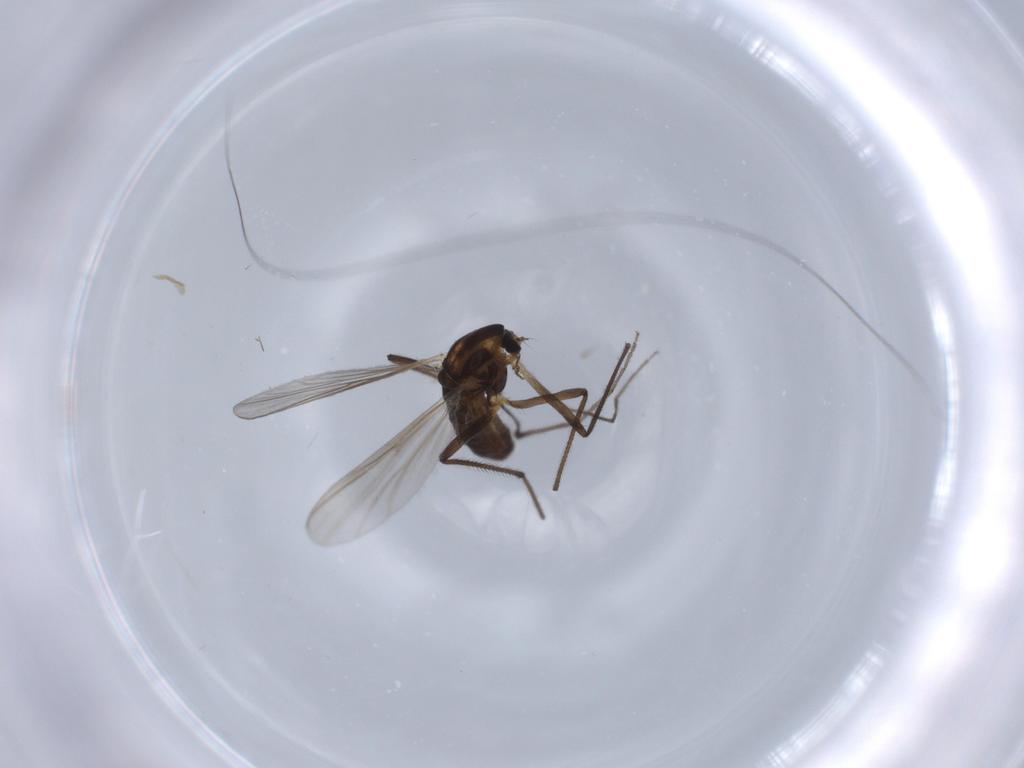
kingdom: Animalia
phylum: Arthropoda
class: Insecta
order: Diptera
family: Chironomidae
